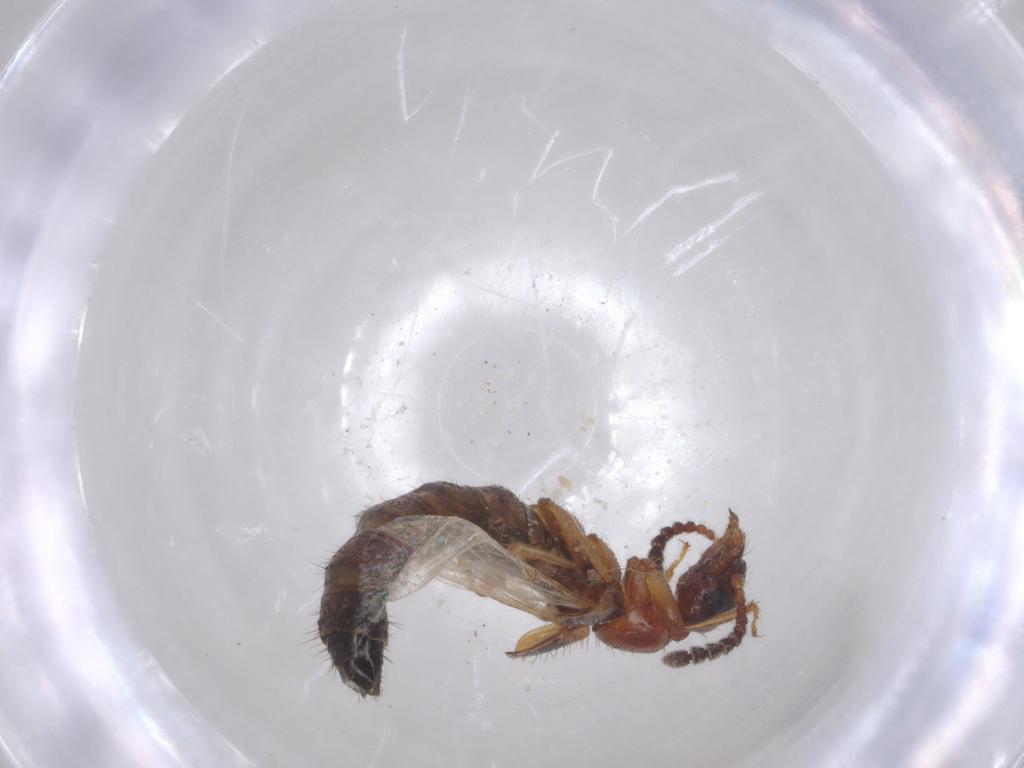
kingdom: Animalia
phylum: Arthropoda
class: Insecta
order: Coleoptera
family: Staphylinidae
